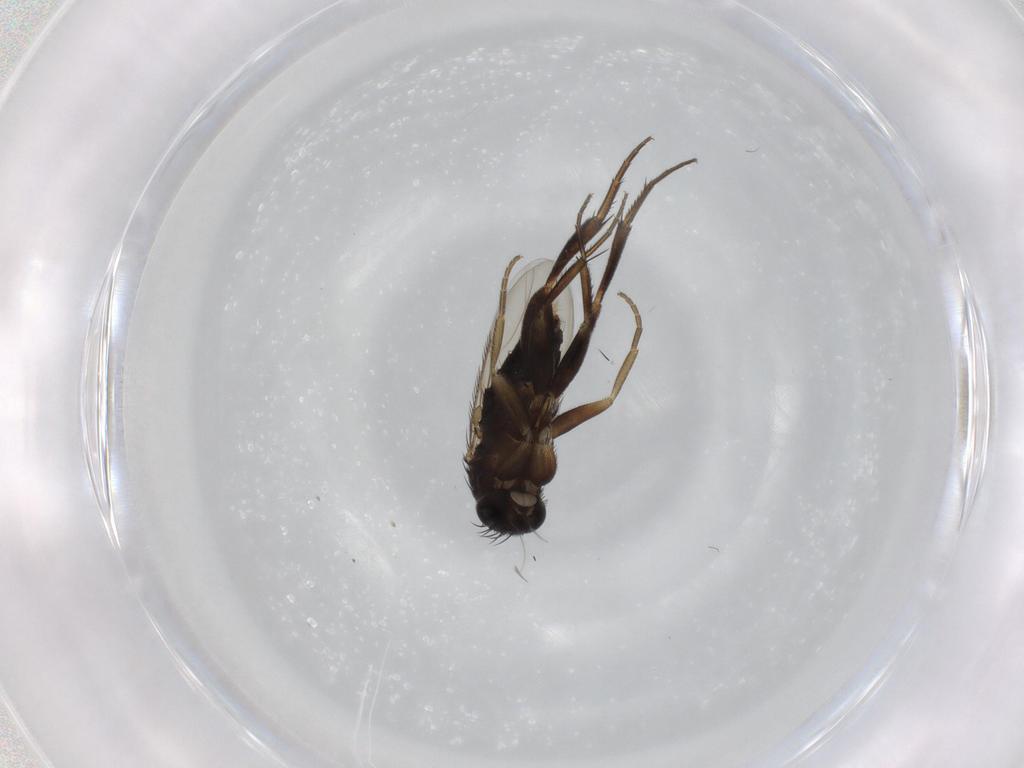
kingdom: Animalia
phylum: Arthropoda
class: Insecta
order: Diptera
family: Phoridae
